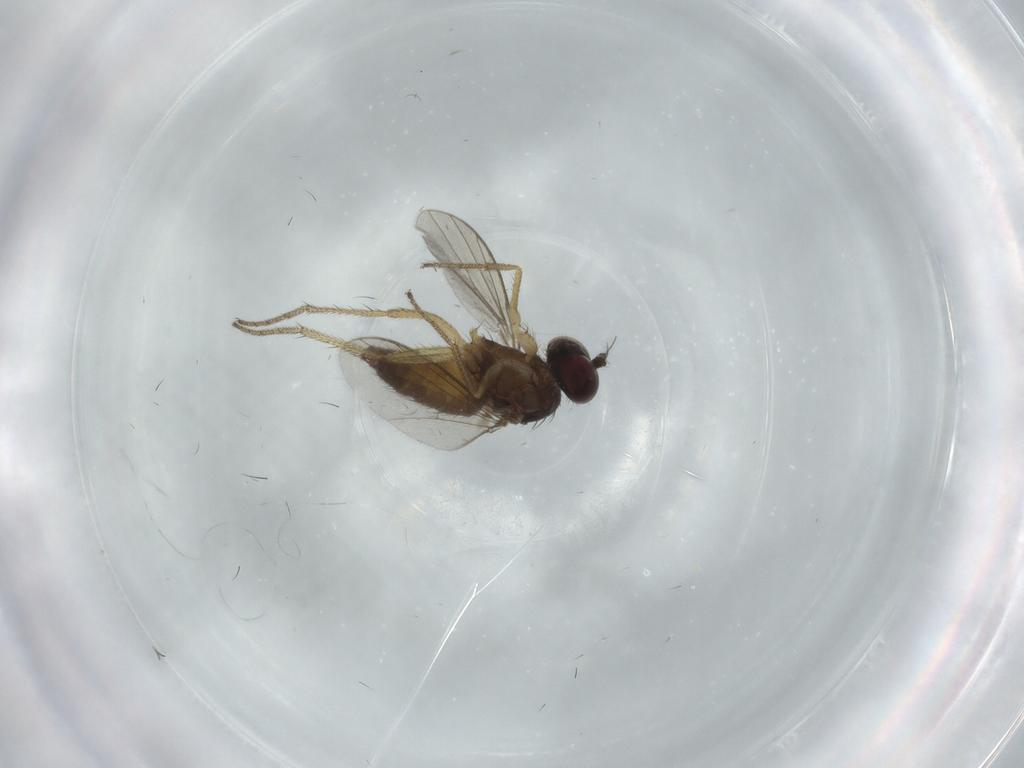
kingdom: Animalia
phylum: Arthropoda
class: Insecta
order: Diptera
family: Dolichopodidae
